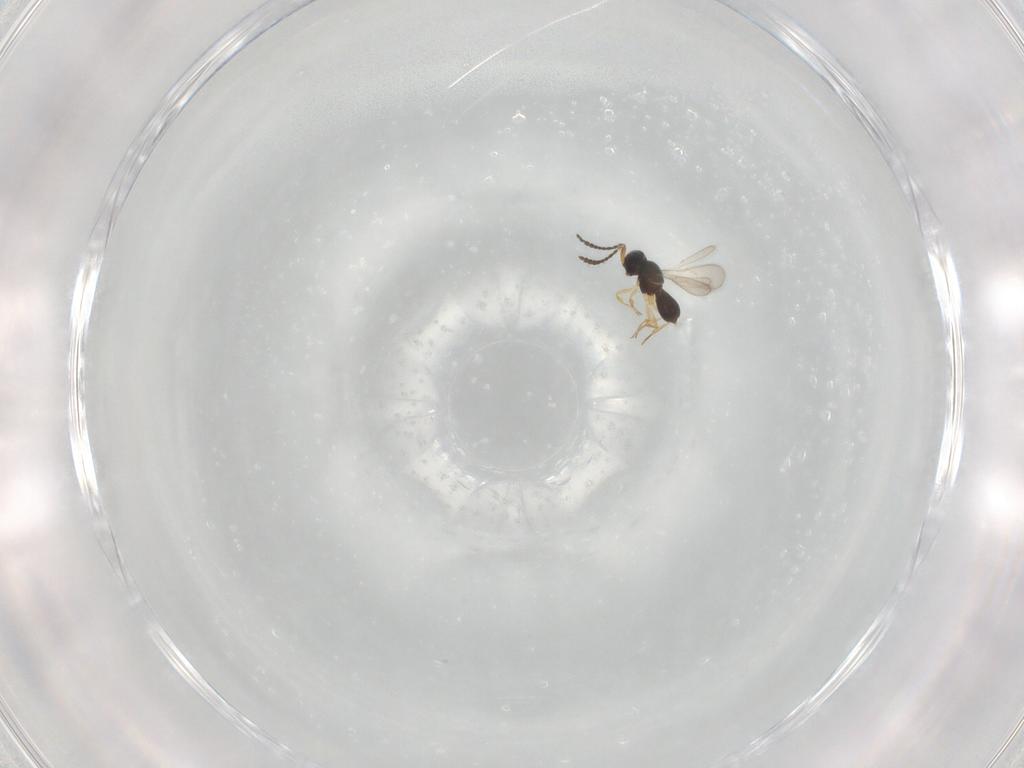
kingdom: Animalia
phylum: Arthropoda
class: Insecta
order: Hymenoptera
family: Scelionidae
